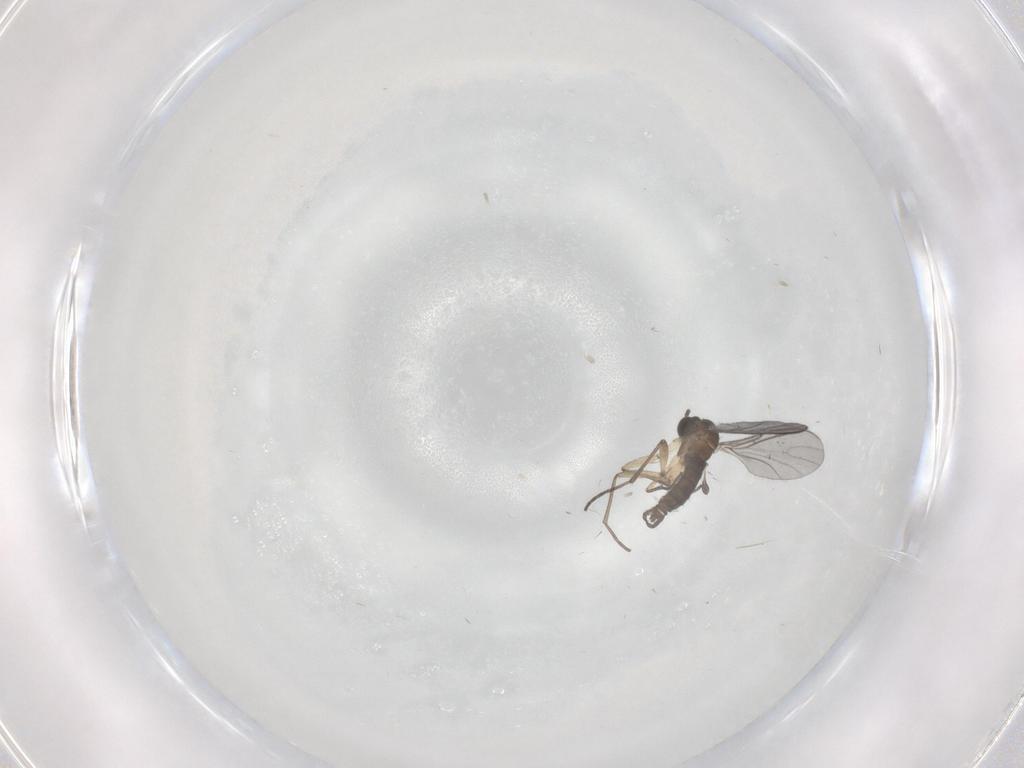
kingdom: Animalia
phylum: Arthropoda
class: Insecta
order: Diptera
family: Sciaridae
